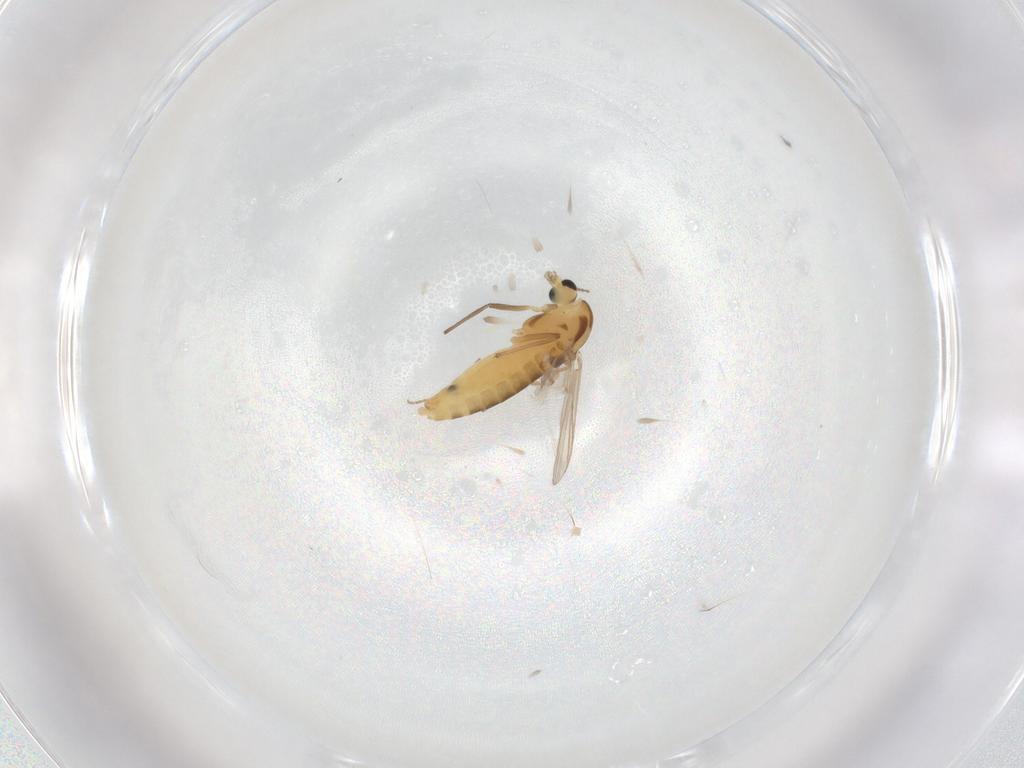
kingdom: Animalia
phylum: Arthropoda
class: Insecta
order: Diptera
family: Chironomidae
